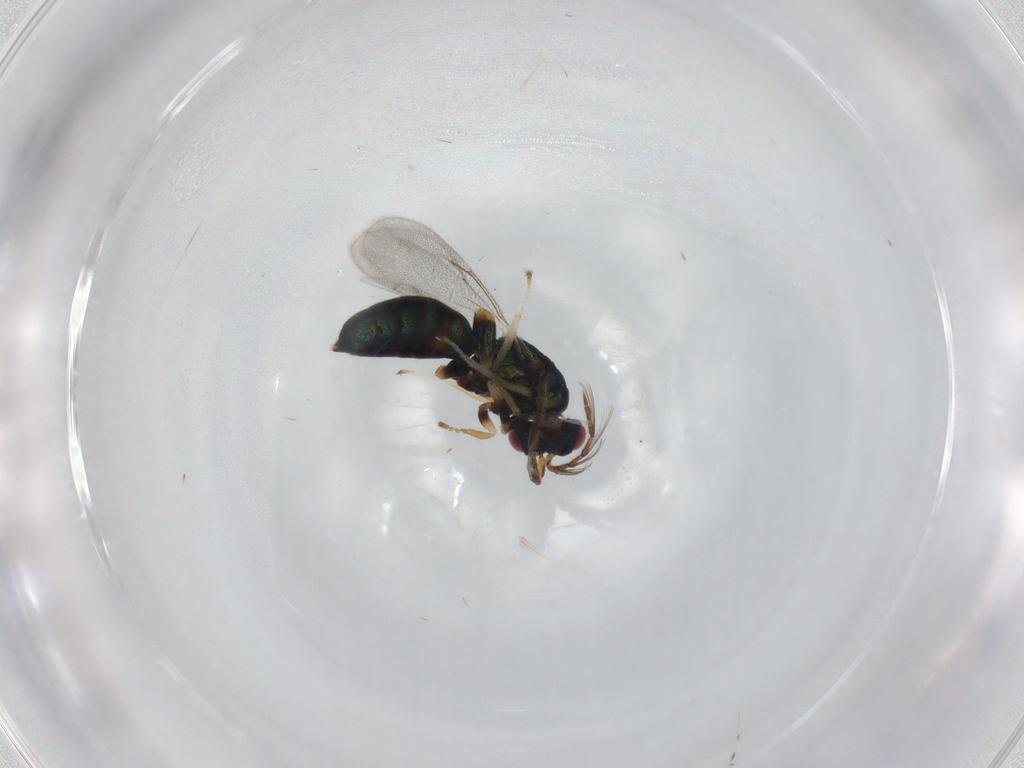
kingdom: Animalia
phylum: Arthropoda
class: Insecta
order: Hymenoptera
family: Eulophidae
